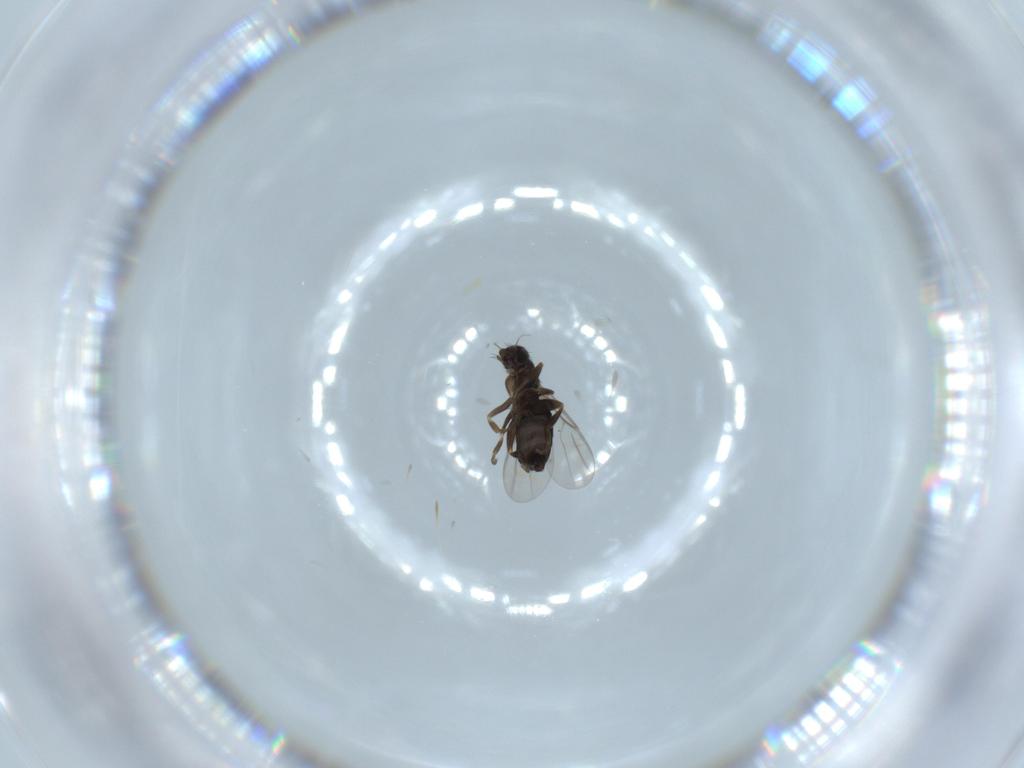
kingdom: Animalia
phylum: Arthropoda
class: Insecta
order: Diptera
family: Phoridae
